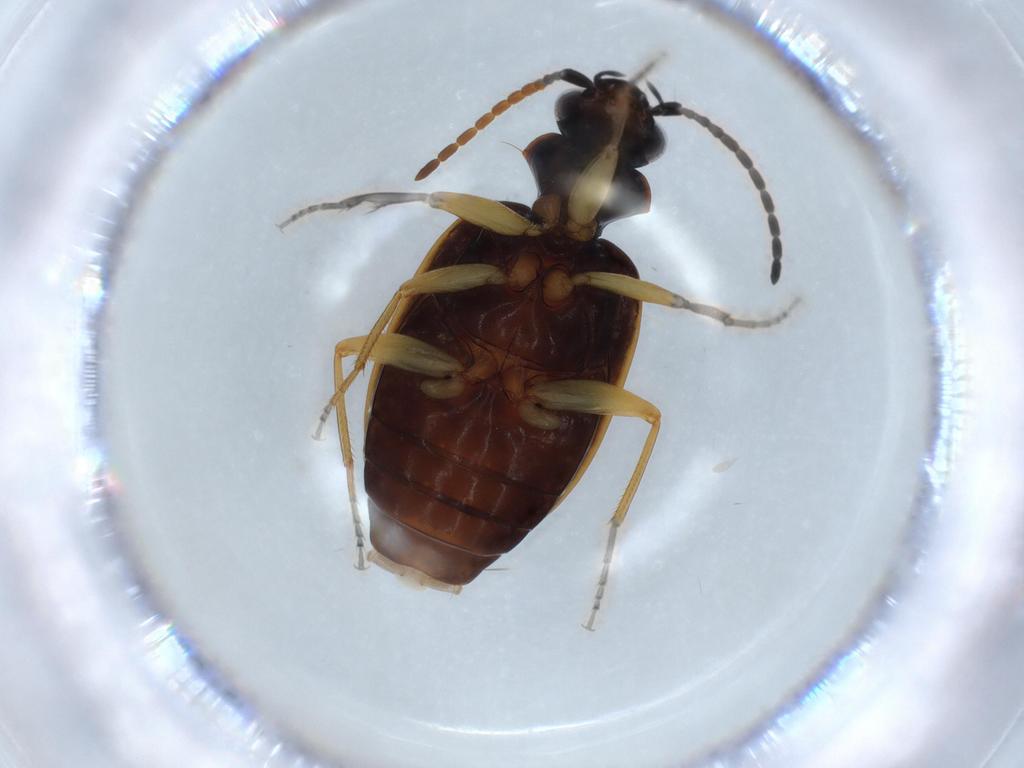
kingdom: Animalia
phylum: Arthropoda
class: Insecta
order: Coleoptera
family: Carabidae
